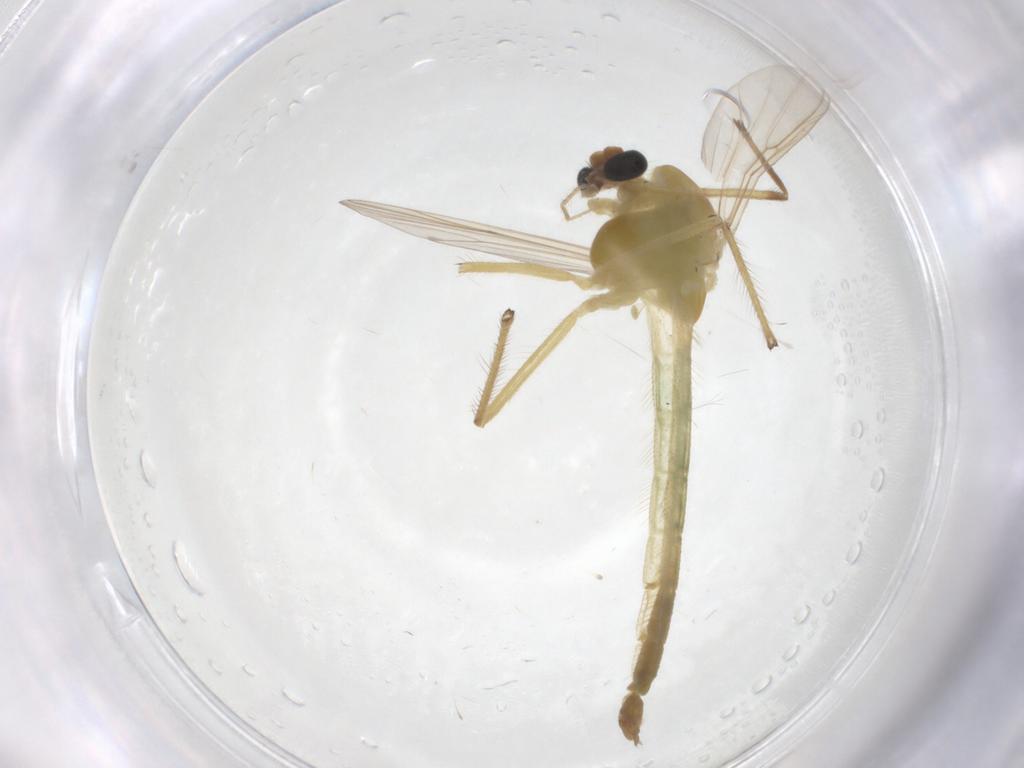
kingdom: Animalia
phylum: Arthropoda
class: Insecta
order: Diptera
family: Chironomidae
